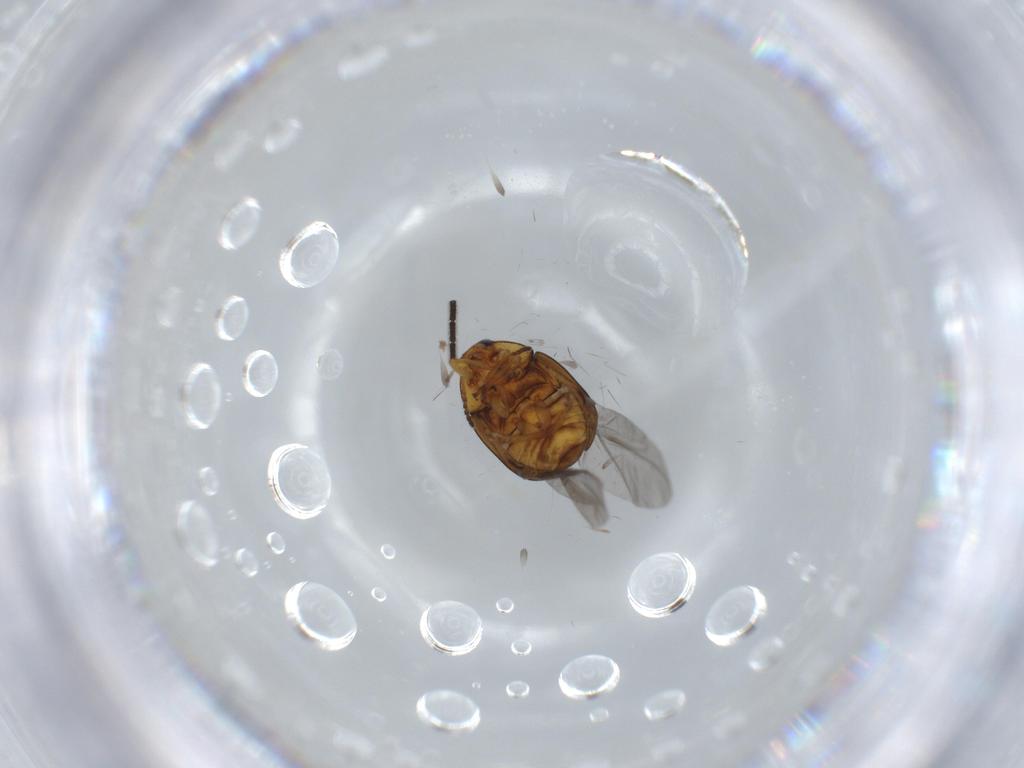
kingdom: Animalia
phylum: Arthropoda
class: Insecta
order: Coleoptera
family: Chrysomelidae
